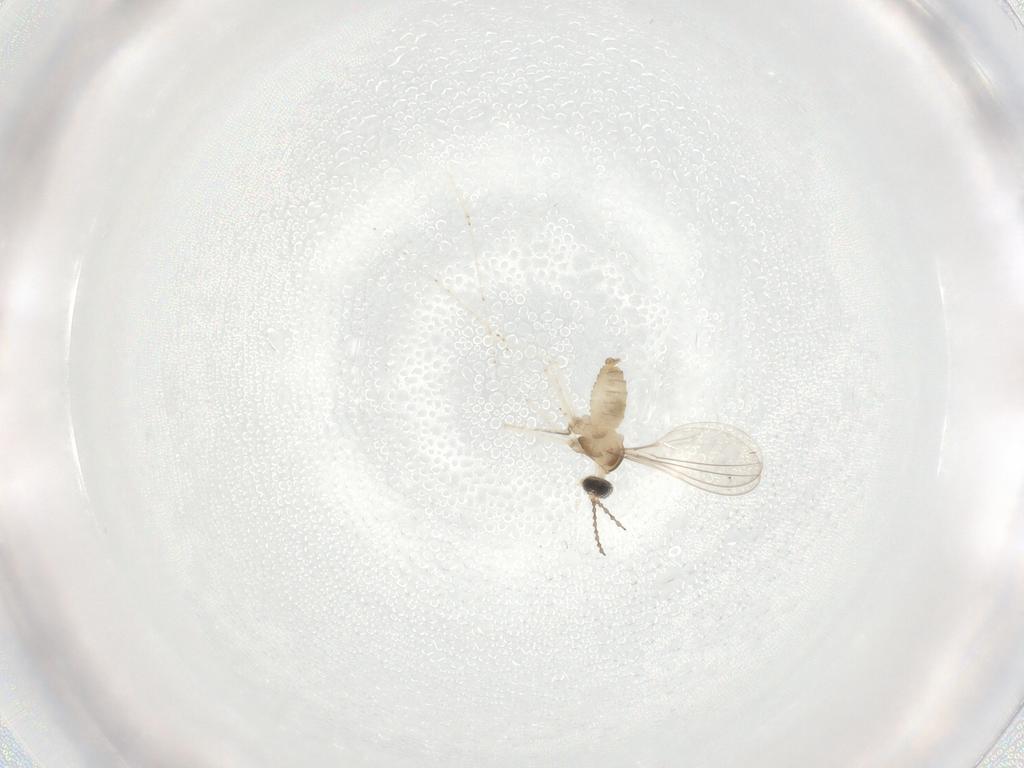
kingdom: Animalia
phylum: Arthropoda
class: Insecta
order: Diptera
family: Cecidomyiidae
